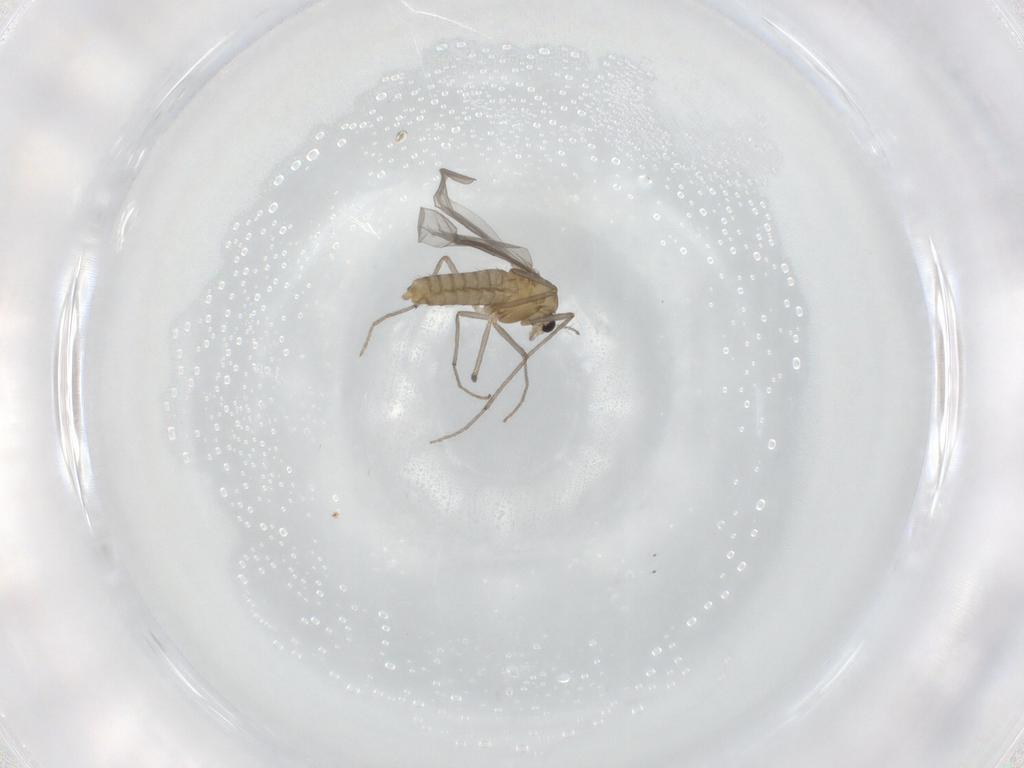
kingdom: Animalia
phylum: Arthropoda
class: Insecta
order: Diptera
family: Chironomidae
